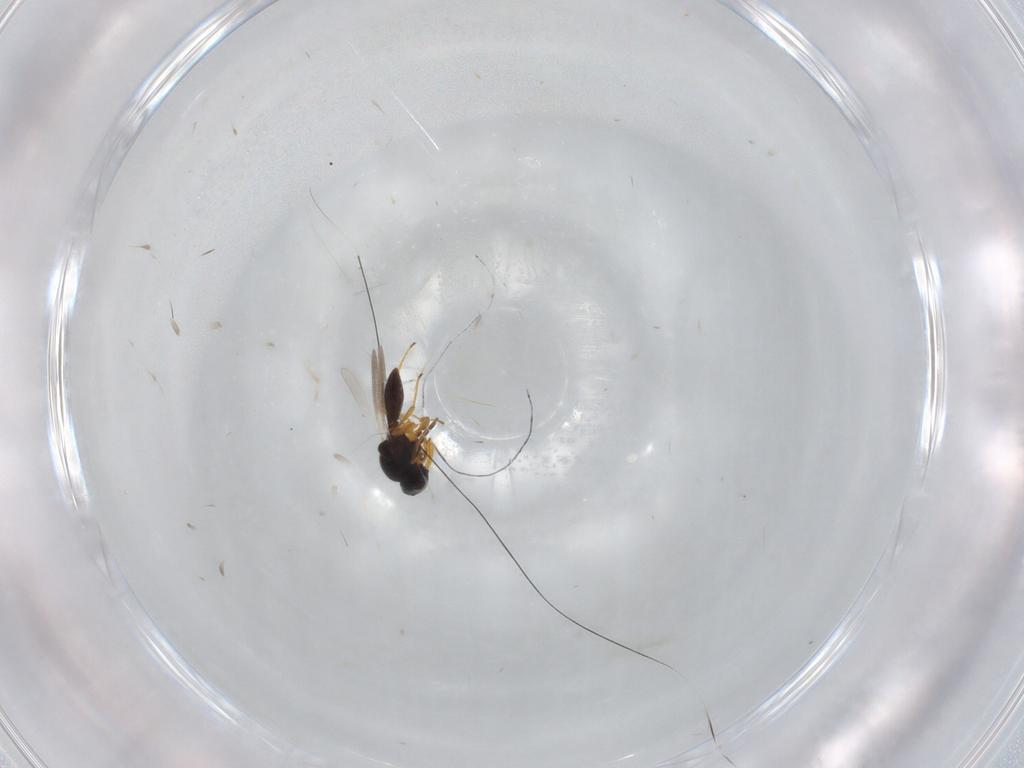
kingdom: Animalia
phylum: Arthropoda
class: Insecta
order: Hymenoptera
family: Platygastridae
